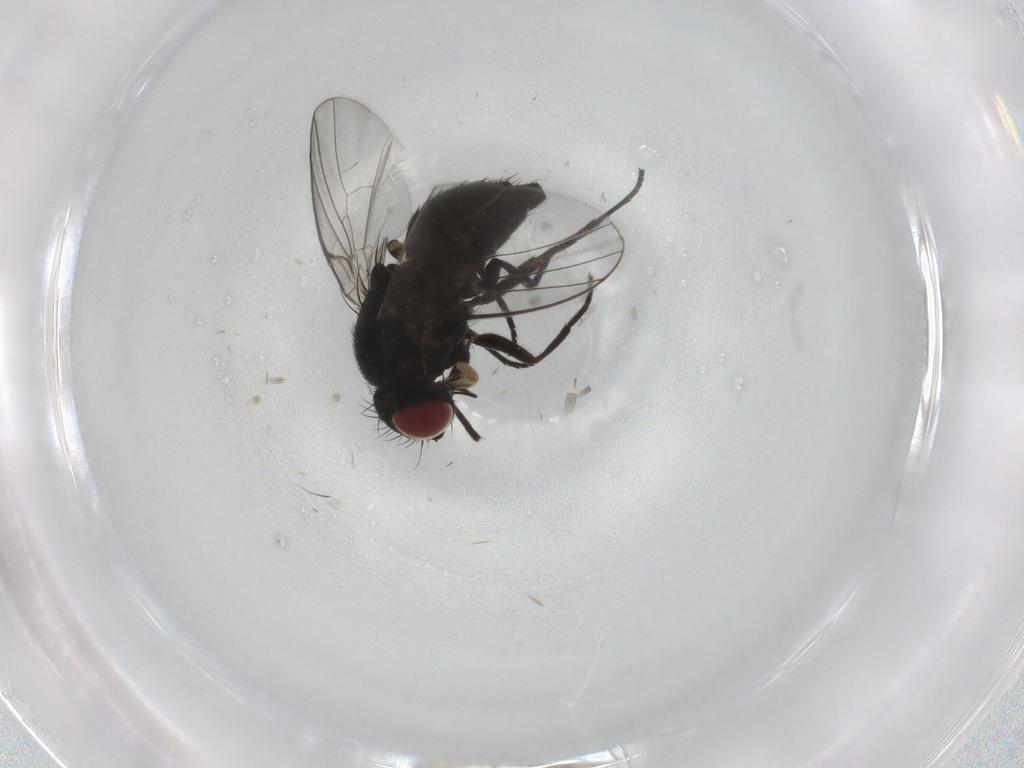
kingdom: Animalia
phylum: Arthropoda
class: Insecta
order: Diptera
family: Agromyzidae
